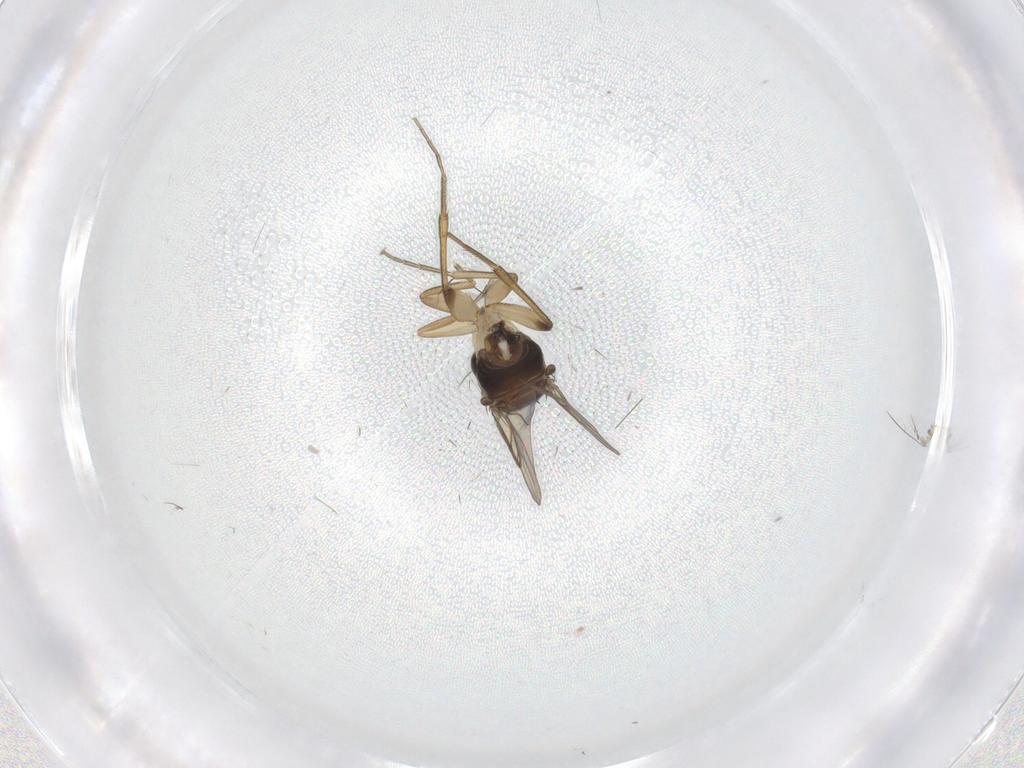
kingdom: Animalia
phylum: Arthropoda
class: Insecta
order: Diptera
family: Phoridae
